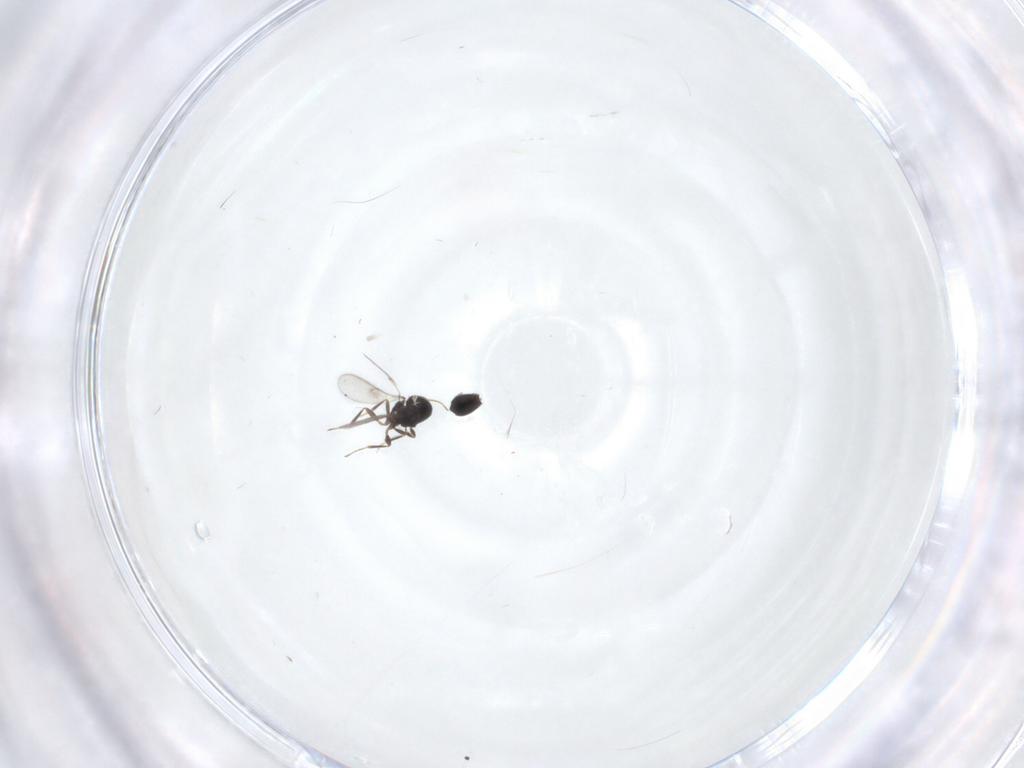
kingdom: Animalia
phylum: Arthropoda
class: Insecta
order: Hymenoptera
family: Scelionidae
